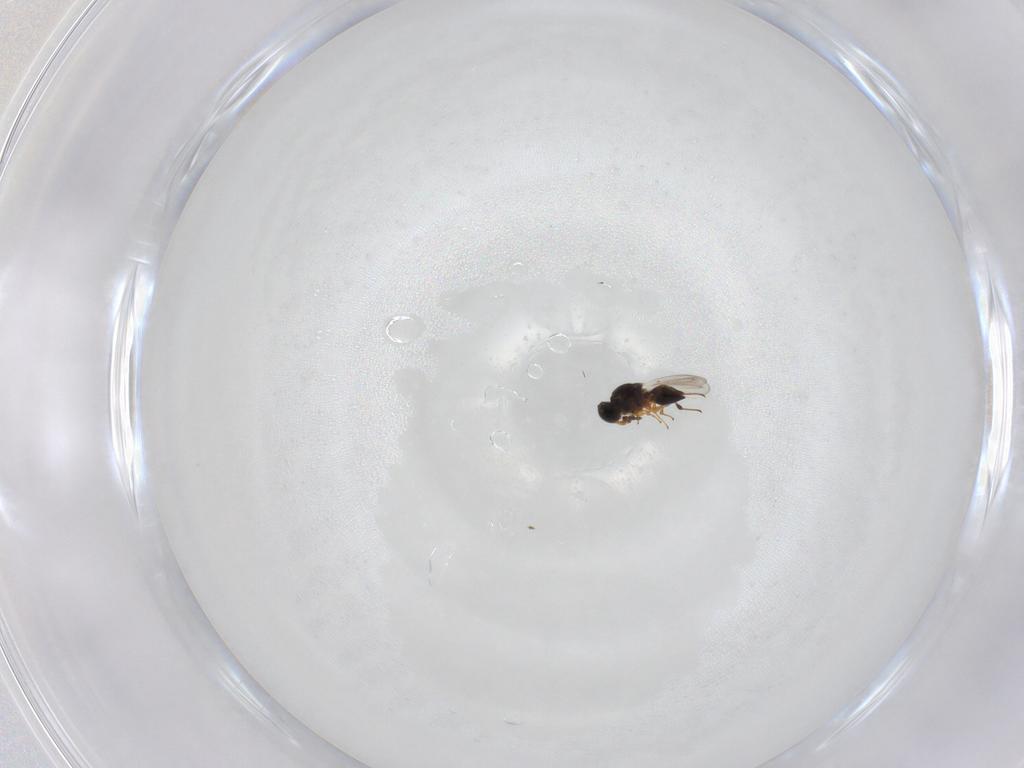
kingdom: Animalia
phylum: Arthropoda
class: Insecta
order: Hymenoptera
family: Platygastridae
